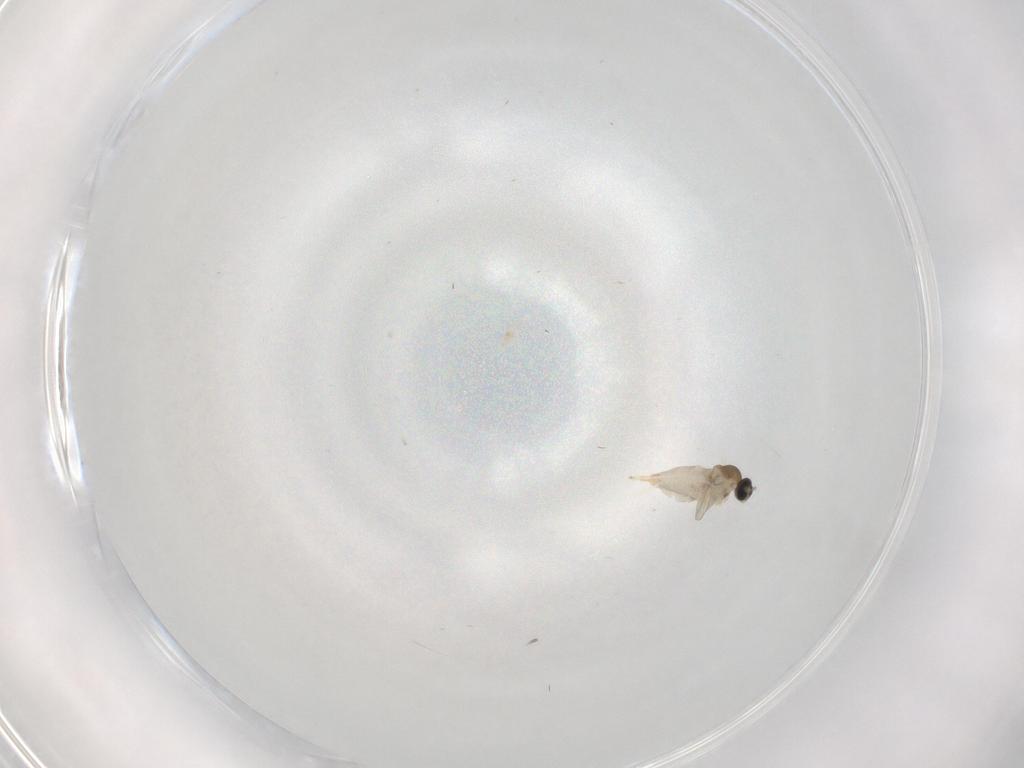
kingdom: Animalia
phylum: Arthropoda
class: Insecta
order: Diptera
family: Cecidomyiidae
